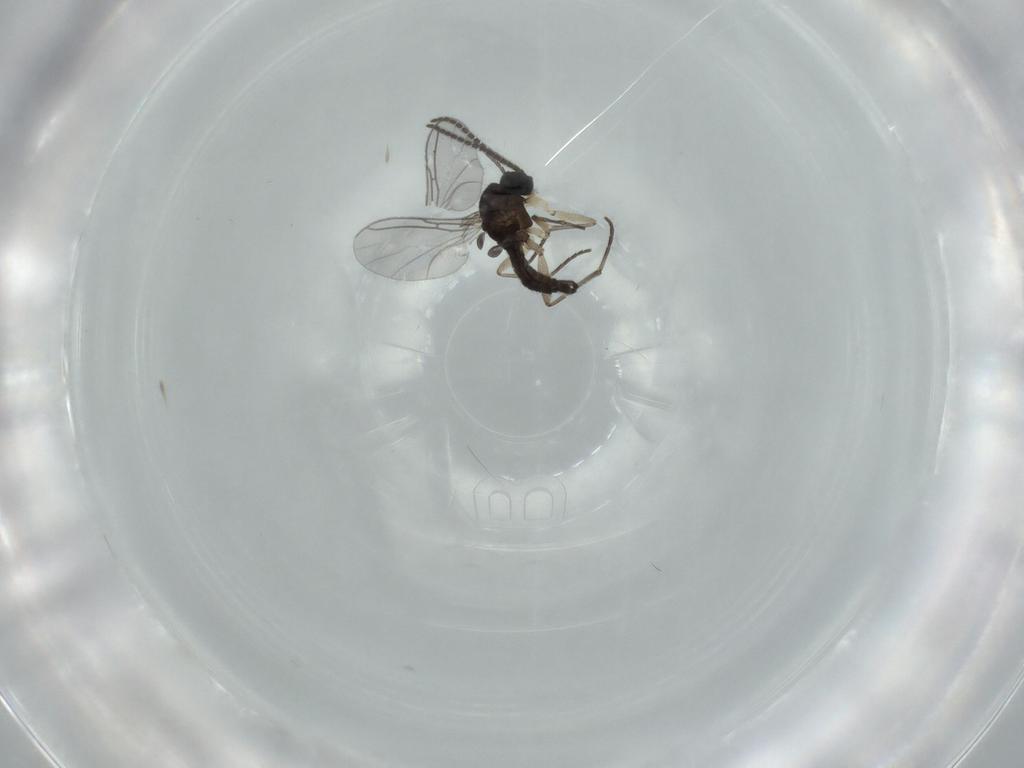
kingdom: Animalia
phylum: Arthropoda
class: Insecta
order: Diptera
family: Sciaridae
